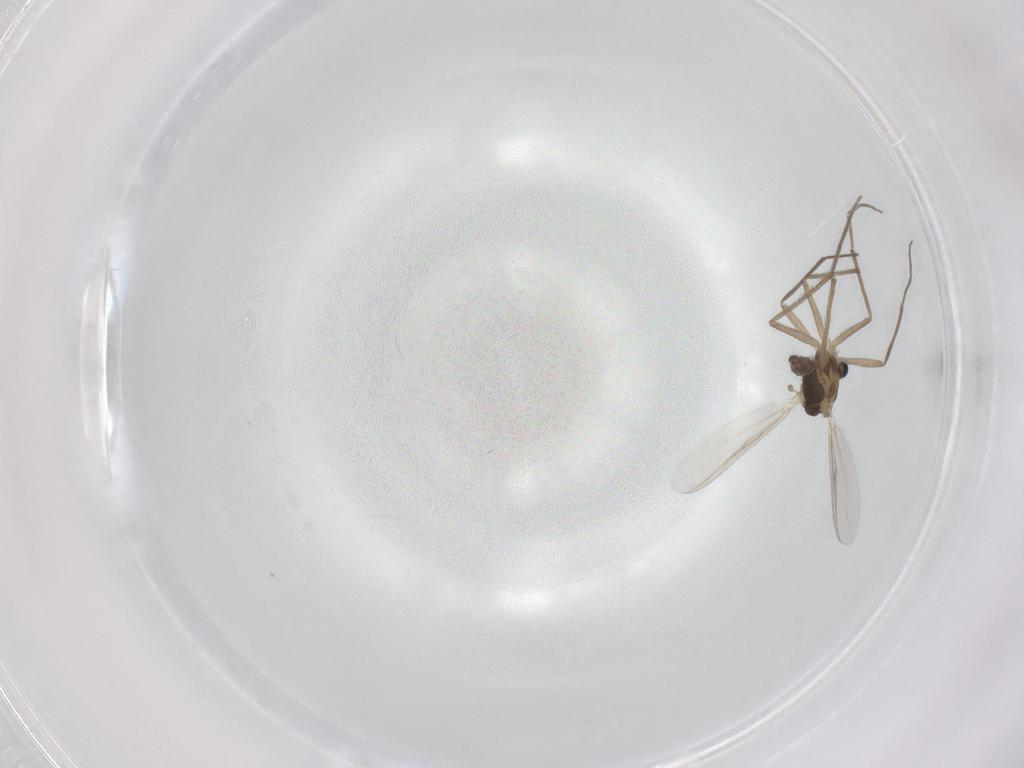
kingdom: Animalia
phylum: Arthropoda
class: Insecta
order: Diptera
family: Chironomidae
